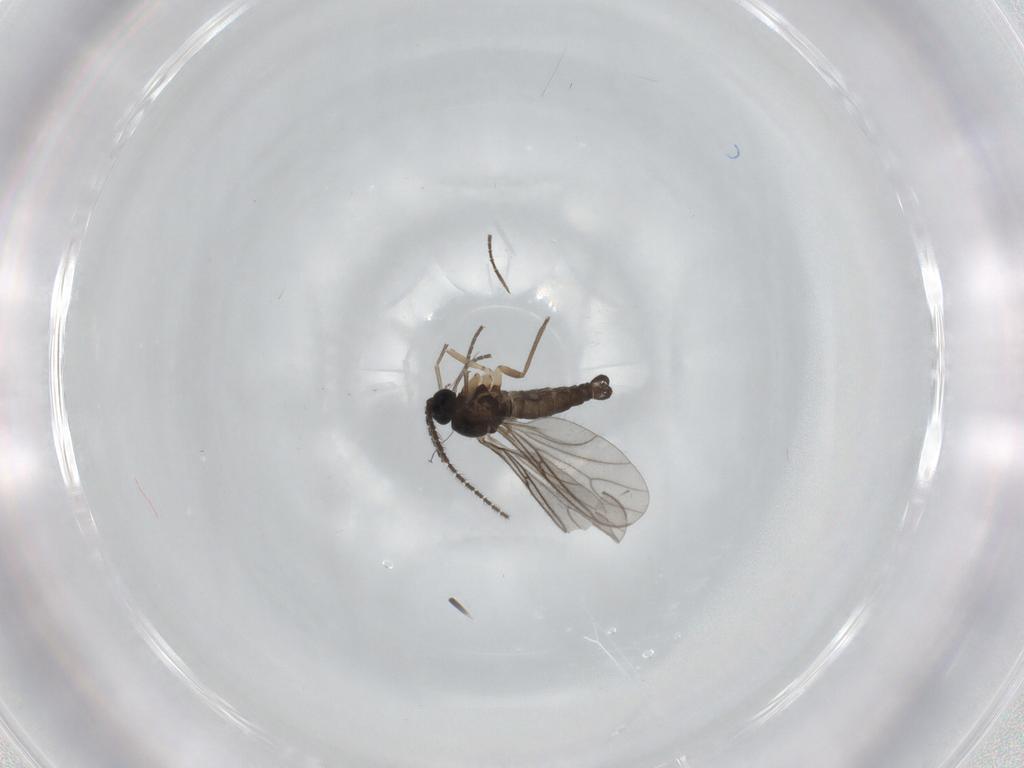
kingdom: Animalia
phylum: Arthropoda
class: Insecta
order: Diptera
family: Sciaridae
